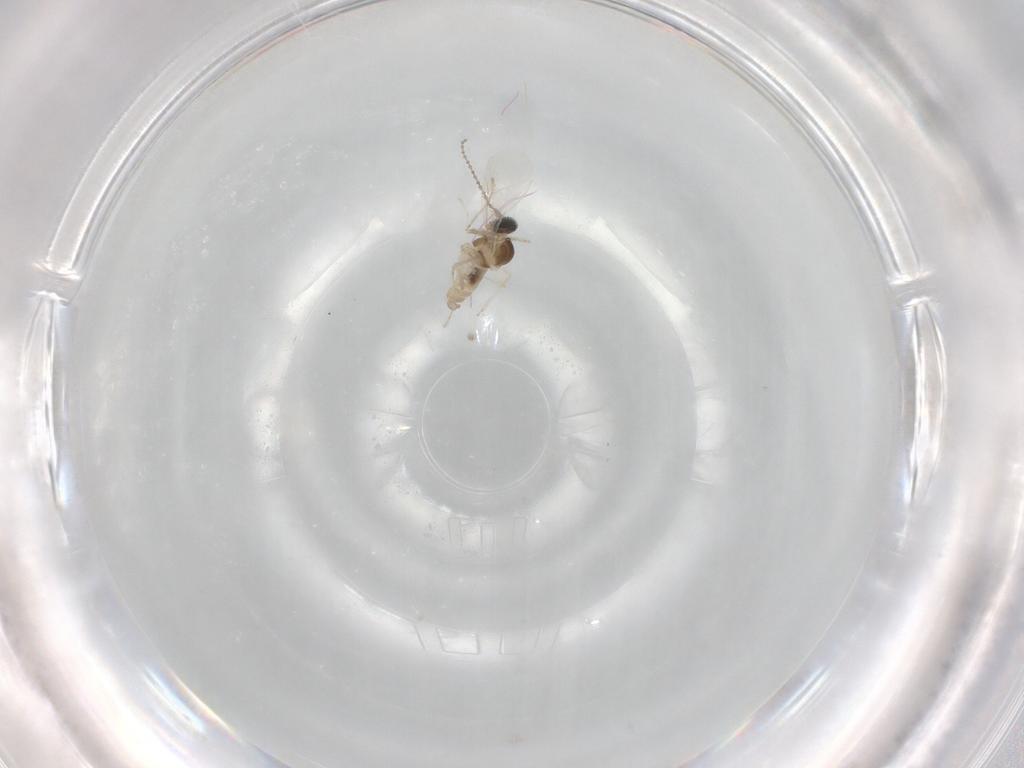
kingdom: Animalia
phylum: Arthropoda
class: Insecta
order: Diptera
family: Cecidomyiidae
